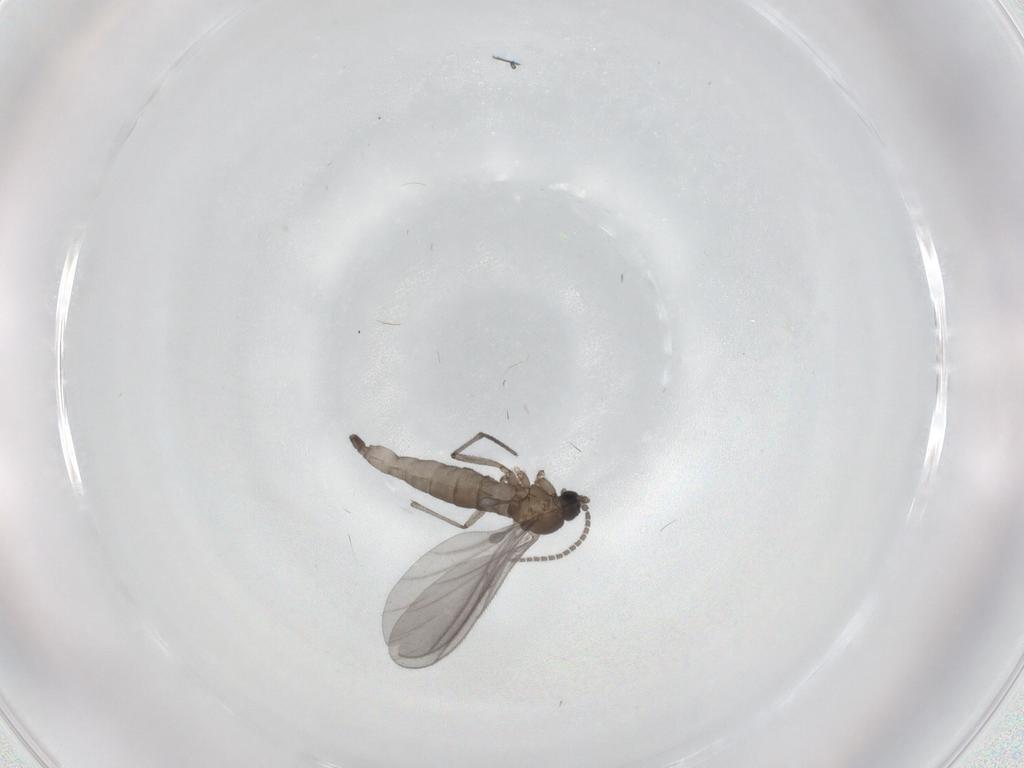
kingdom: Animalia
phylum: Arthropoda
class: Insecta
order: Diptera
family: Sciaridae
